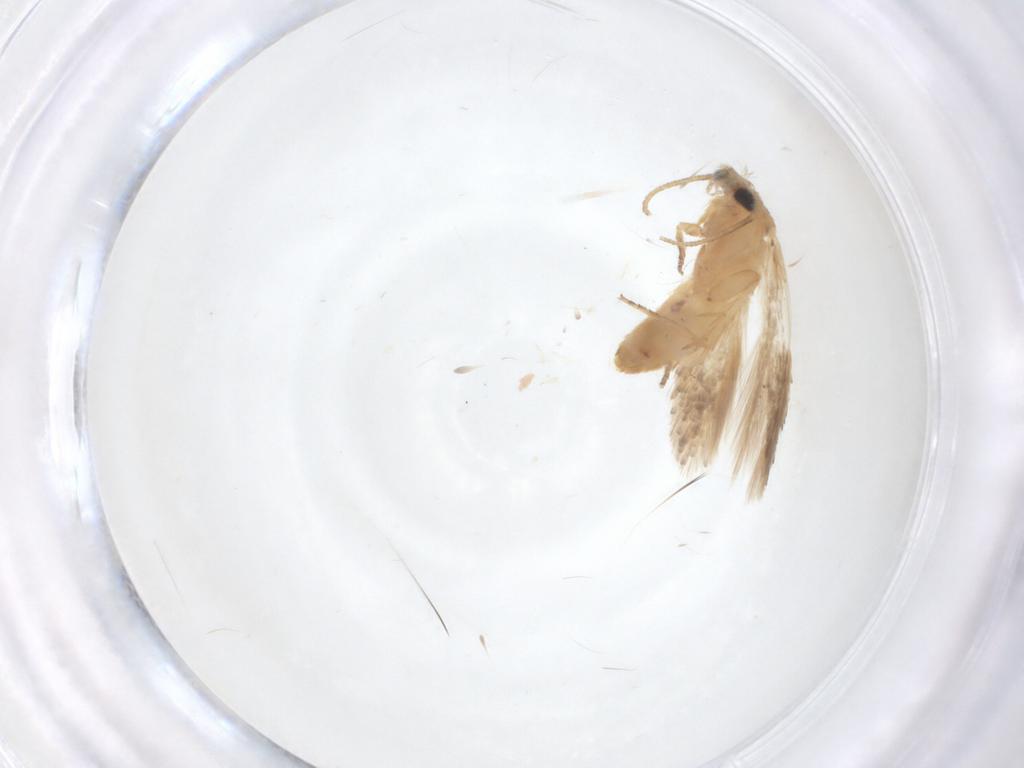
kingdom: Animalia
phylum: Arthropoda
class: Insecta
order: Lepidoptera
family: Nepticulidae
